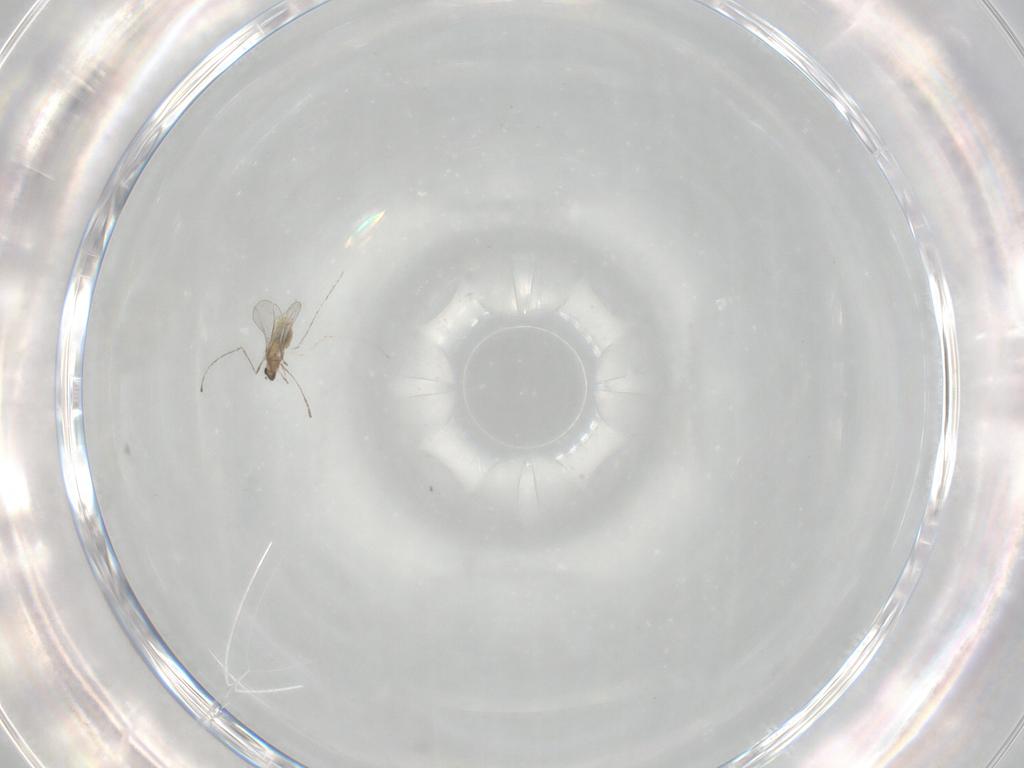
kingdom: Animalia
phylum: Arthropoda
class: Insecta
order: Diptera
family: Cecidomyiidae
